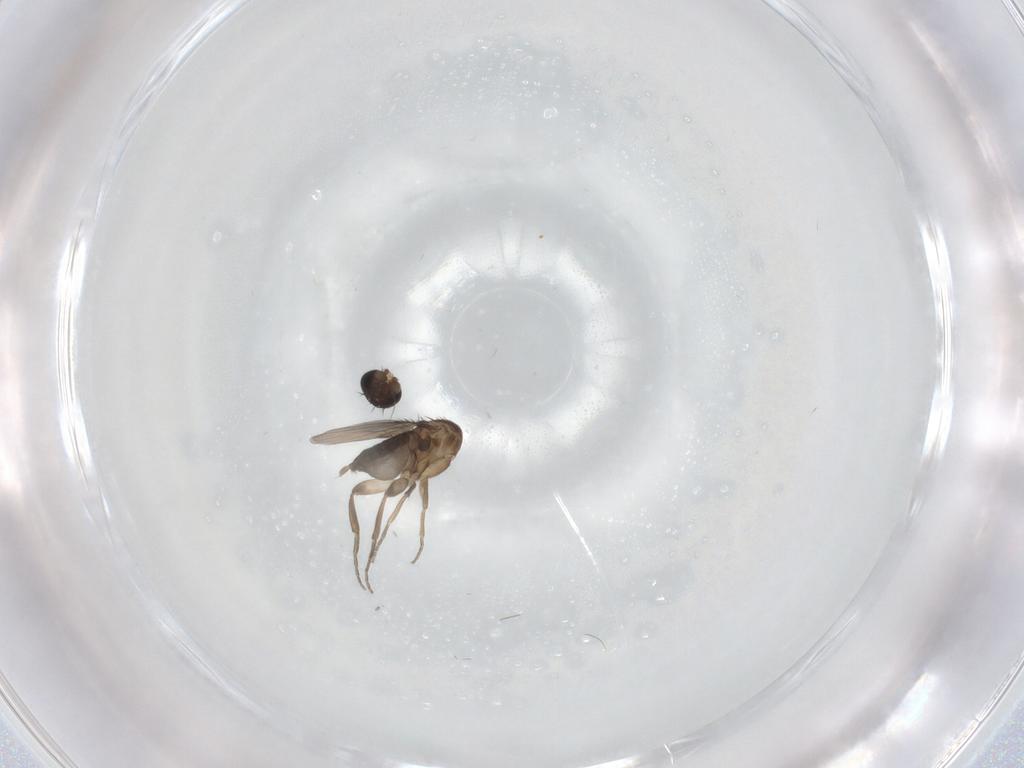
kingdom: Animalia
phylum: Arthropoda
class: Insecta
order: Diptera
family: Phoridae
